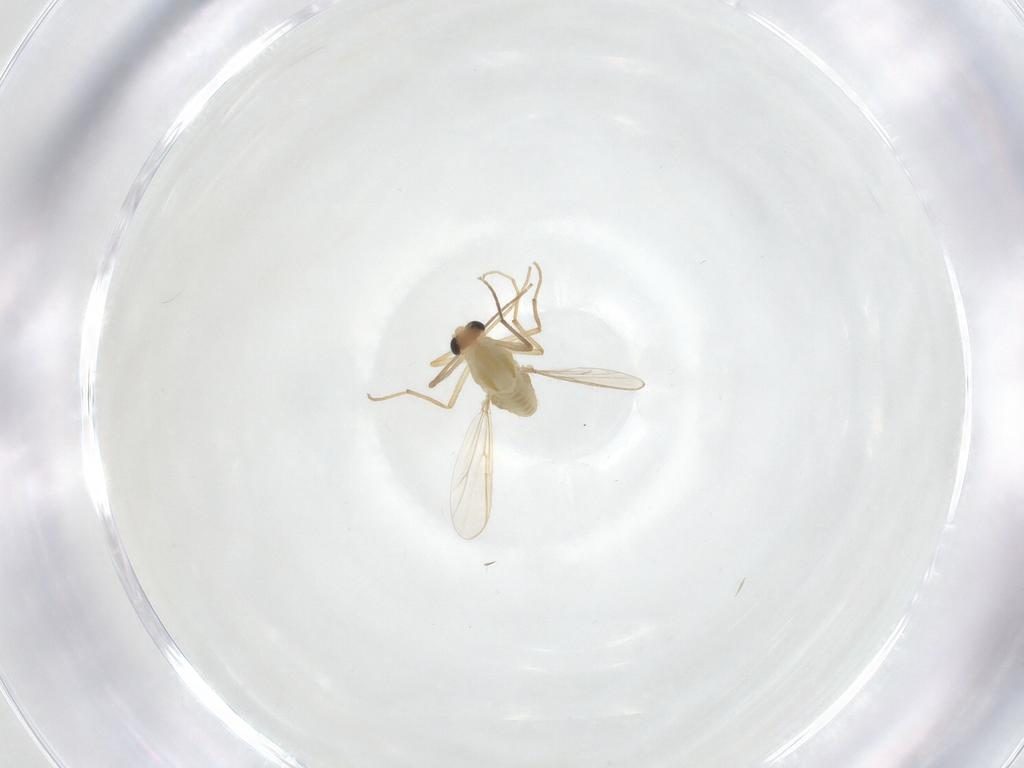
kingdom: Animalia
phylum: Arthropoda
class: Insecta
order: Diptera
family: Chironomidae
